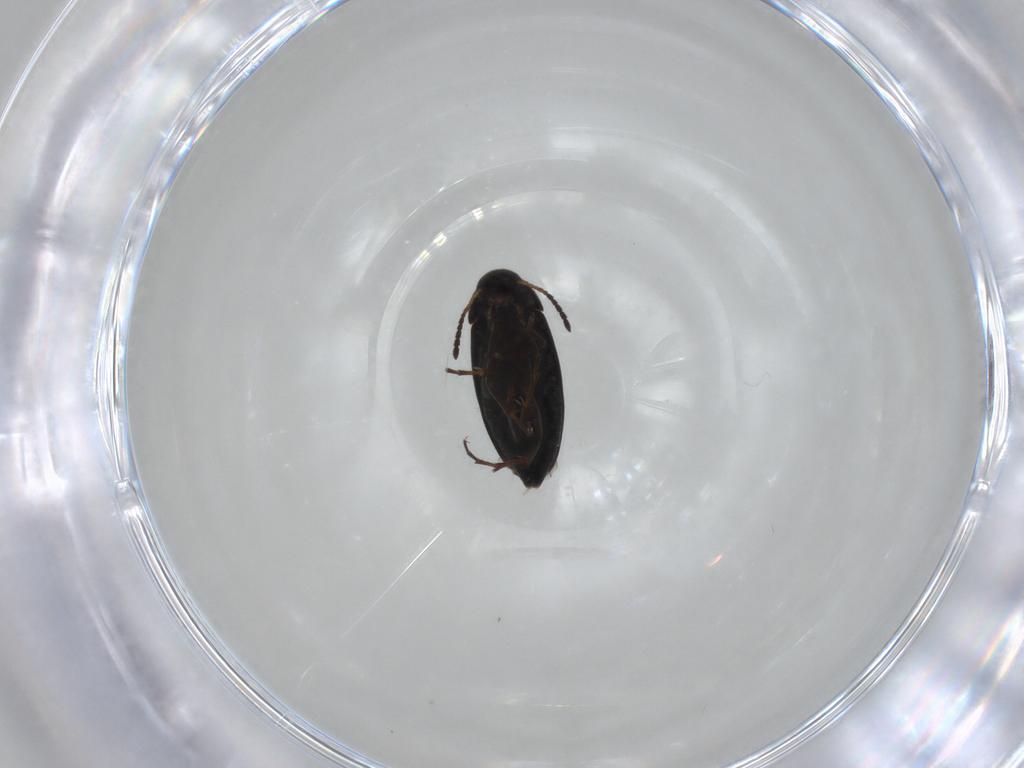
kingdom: Animalia
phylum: Arthropoda
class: Insecta
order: Coleoptera
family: Scraptiidae
